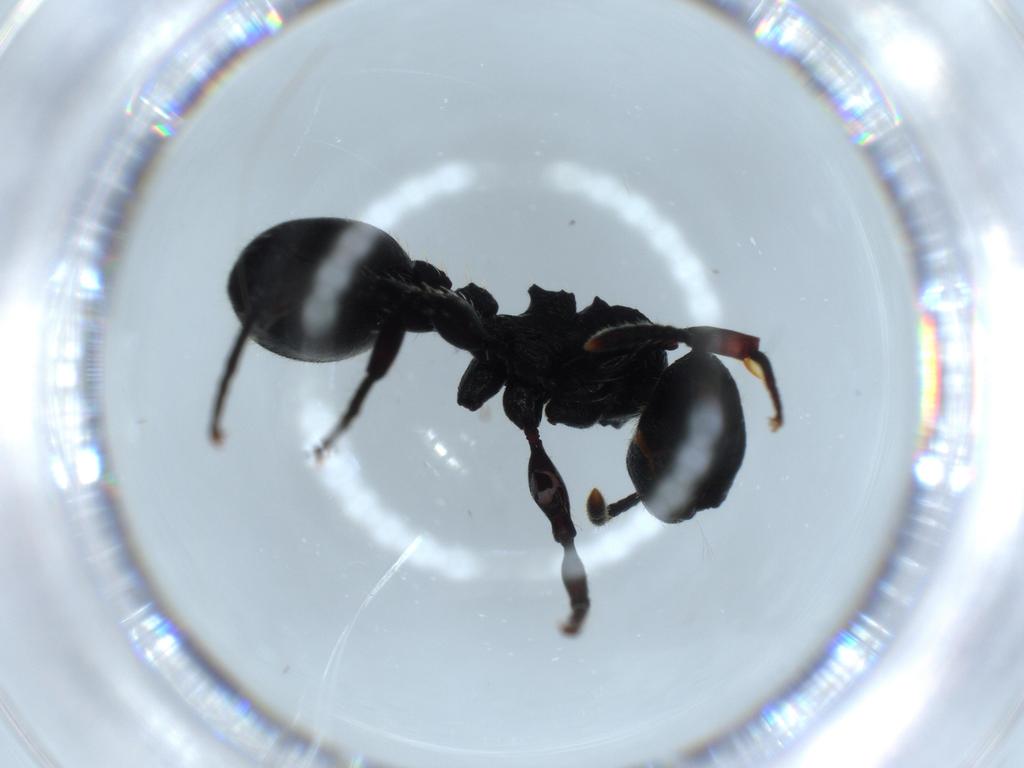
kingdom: Animalia
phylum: Arthropoda
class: Insecta
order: Hymenoptera
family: Formicidae
